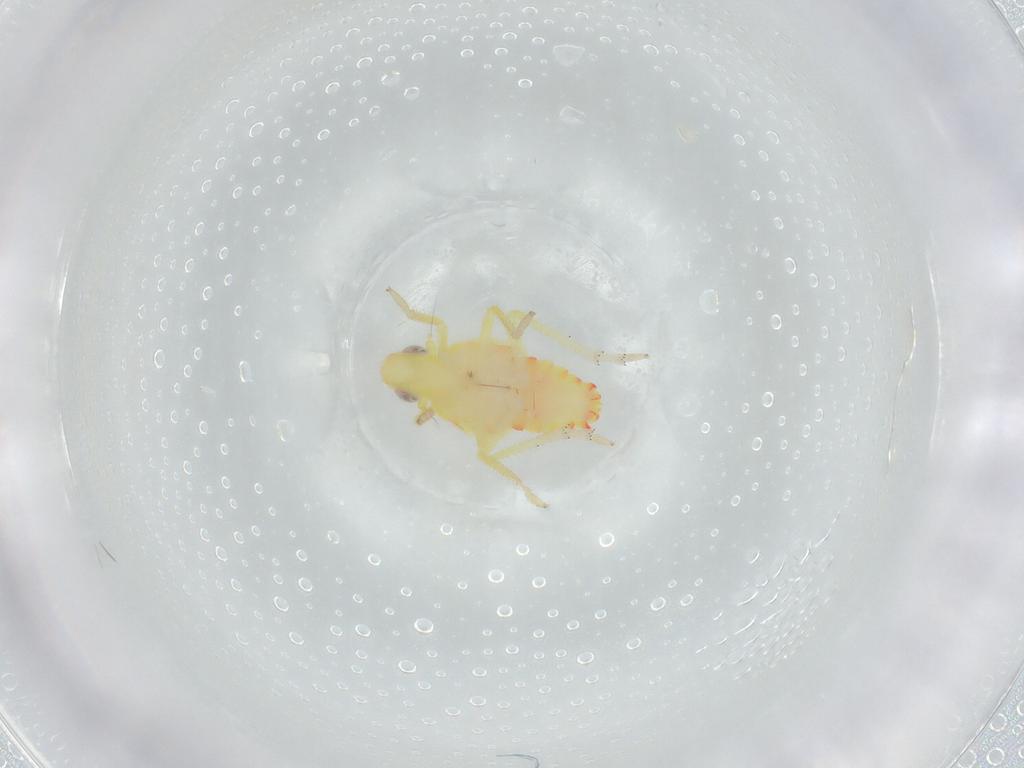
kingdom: Animalia
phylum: Arthropoda
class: Insecta
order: Hemiptera
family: Tropiduchidae
